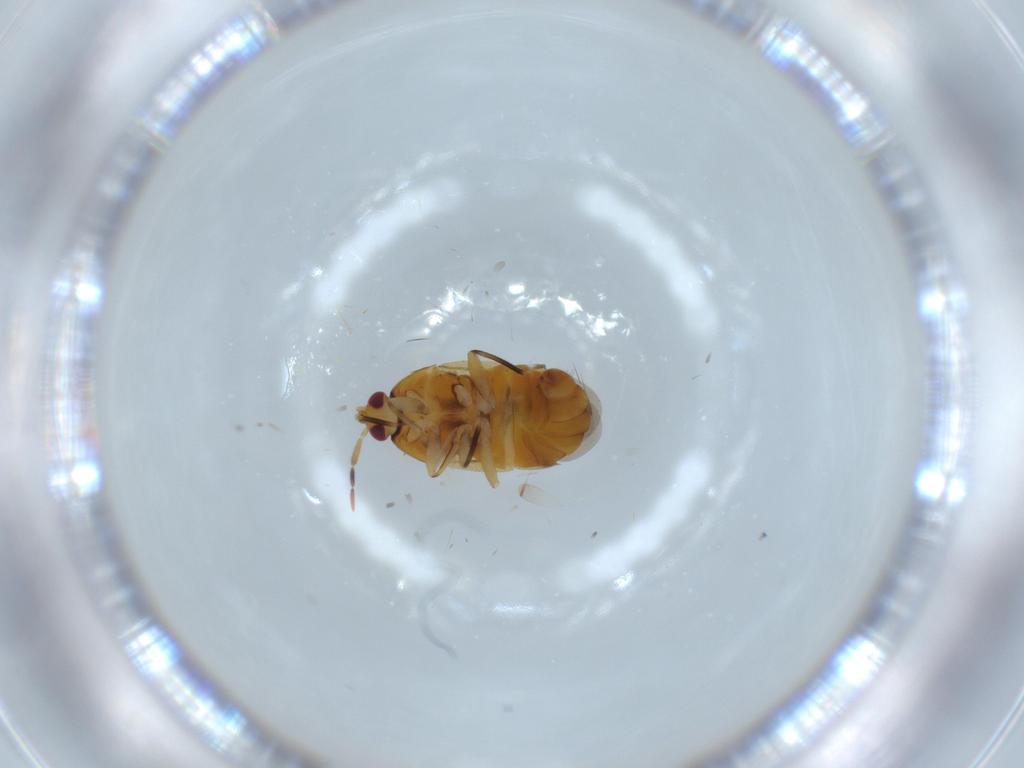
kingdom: Animalia
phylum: Arthropoda
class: Insecta
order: Hemiptera
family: Anthocoridae
